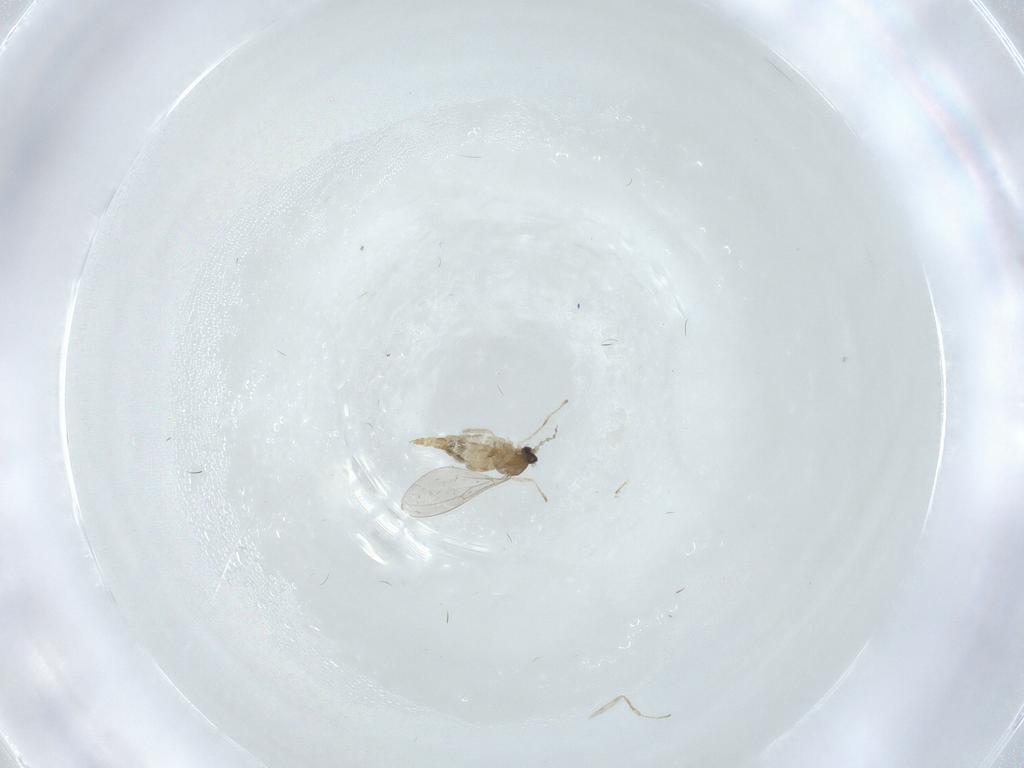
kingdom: Animalia
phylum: Arthropoda
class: Insecta
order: Diptera
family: Cecidomyiidae
